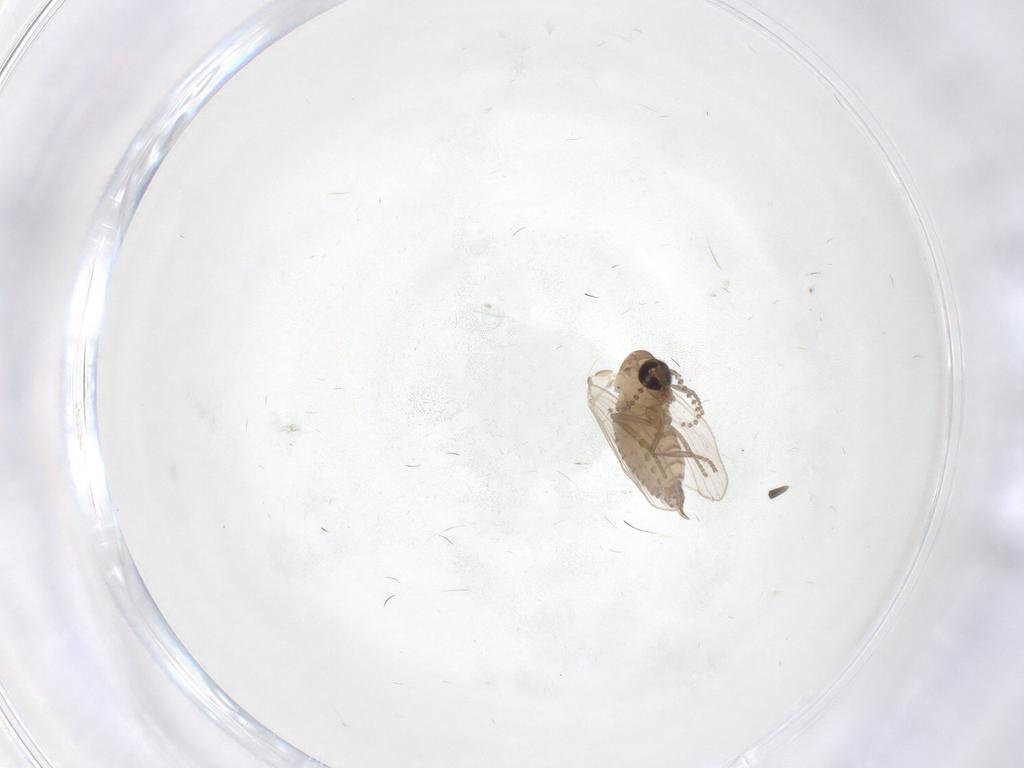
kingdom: Animalia
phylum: Arthropoda
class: Insecta
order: Diptera
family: Psychodidae
